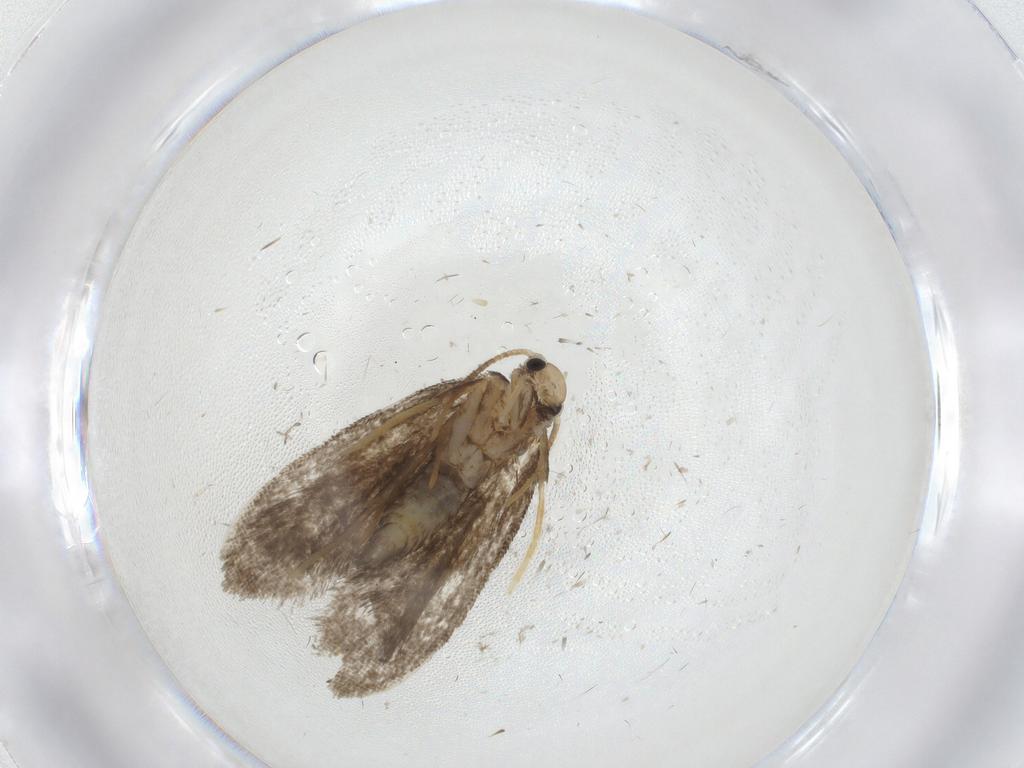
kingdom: Animalia
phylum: Arthropoda
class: Insecta
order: Lepidoptera
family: Psychidae
